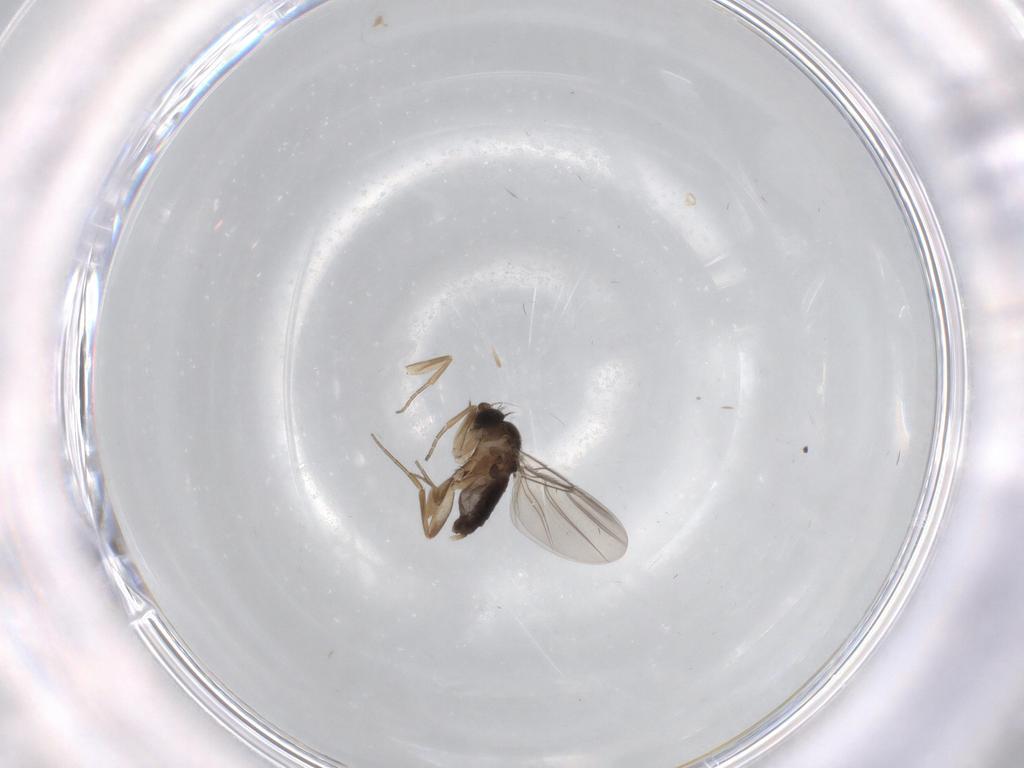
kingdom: Animalia
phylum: Arthropoda
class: Insecta
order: Diptera
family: Phoridae
